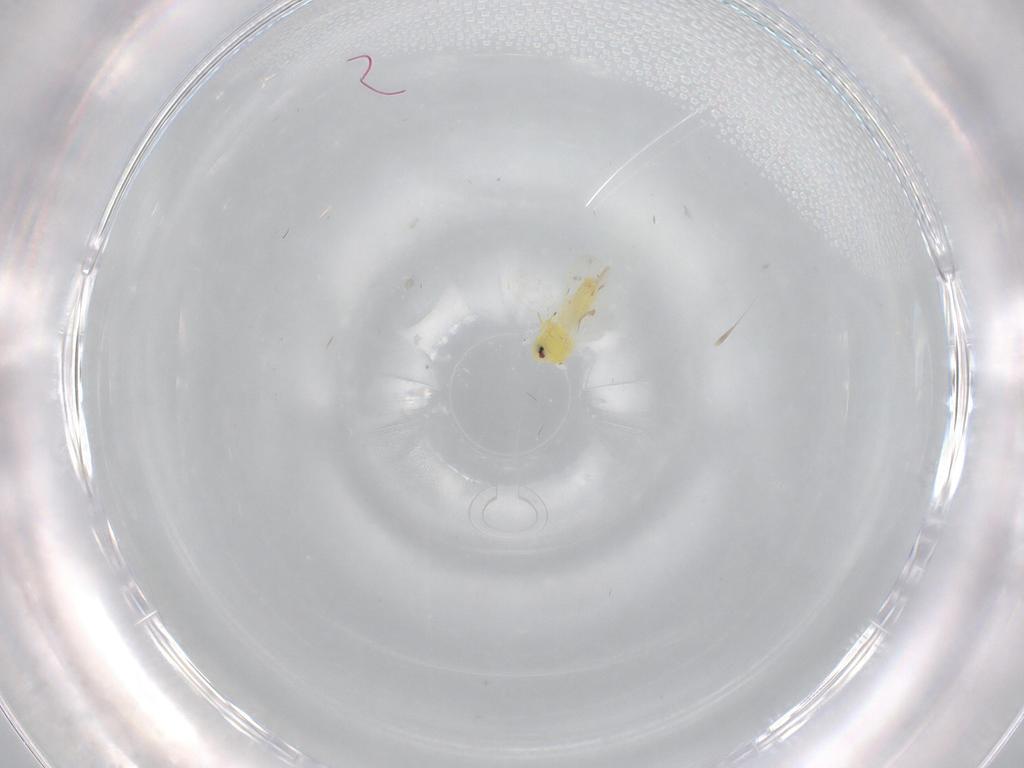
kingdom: Animalia
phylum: Arthropoda
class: Insecta
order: Hemiptera
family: Aleyrodidae
